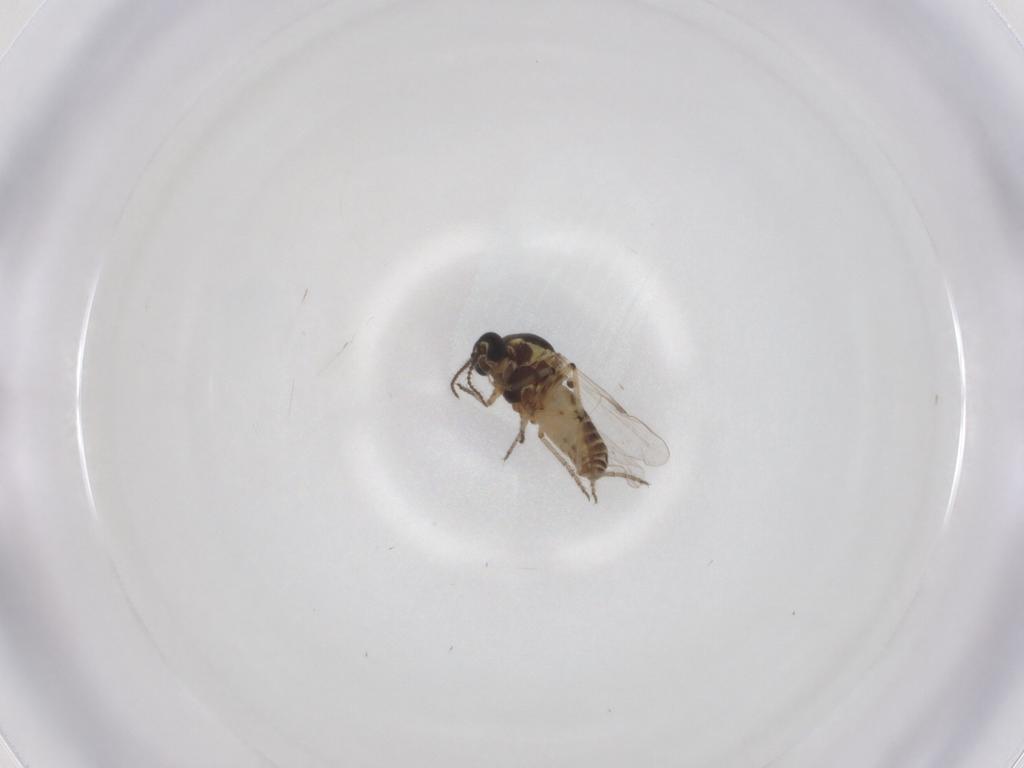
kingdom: Animalia
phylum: Arthropoda
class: Insecta
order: Diptera
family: Ceratopogonidae
